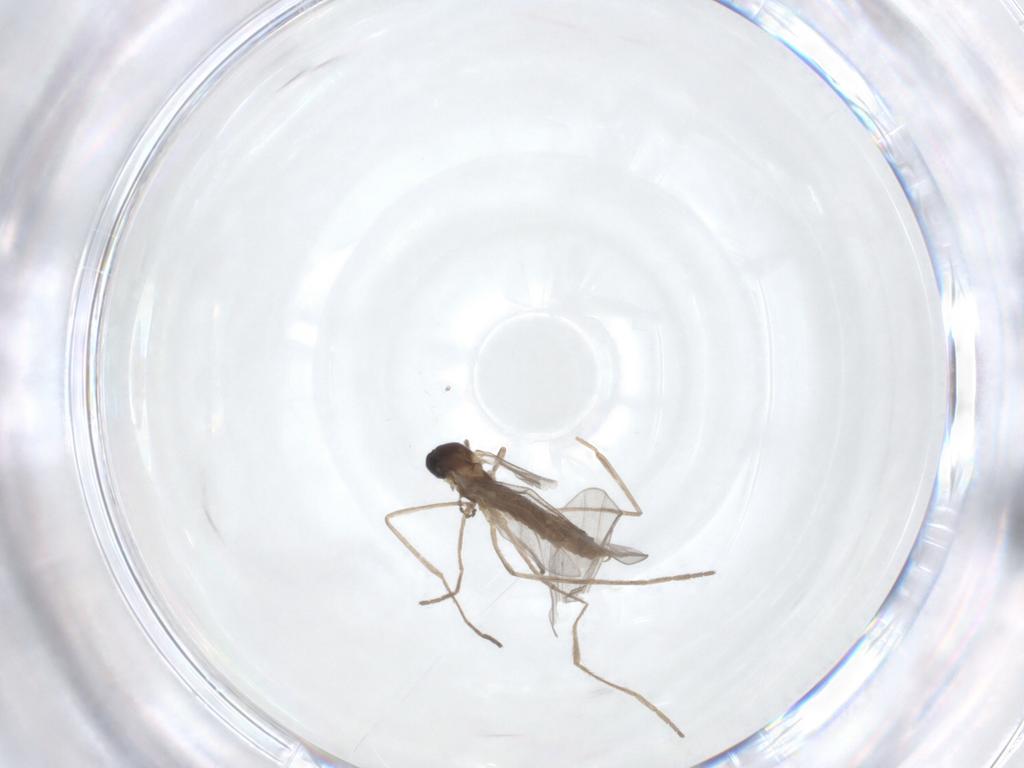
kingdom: Animalia
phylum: Arthropoda
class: Insecta
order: Diptera
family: Cecidomyiidae
